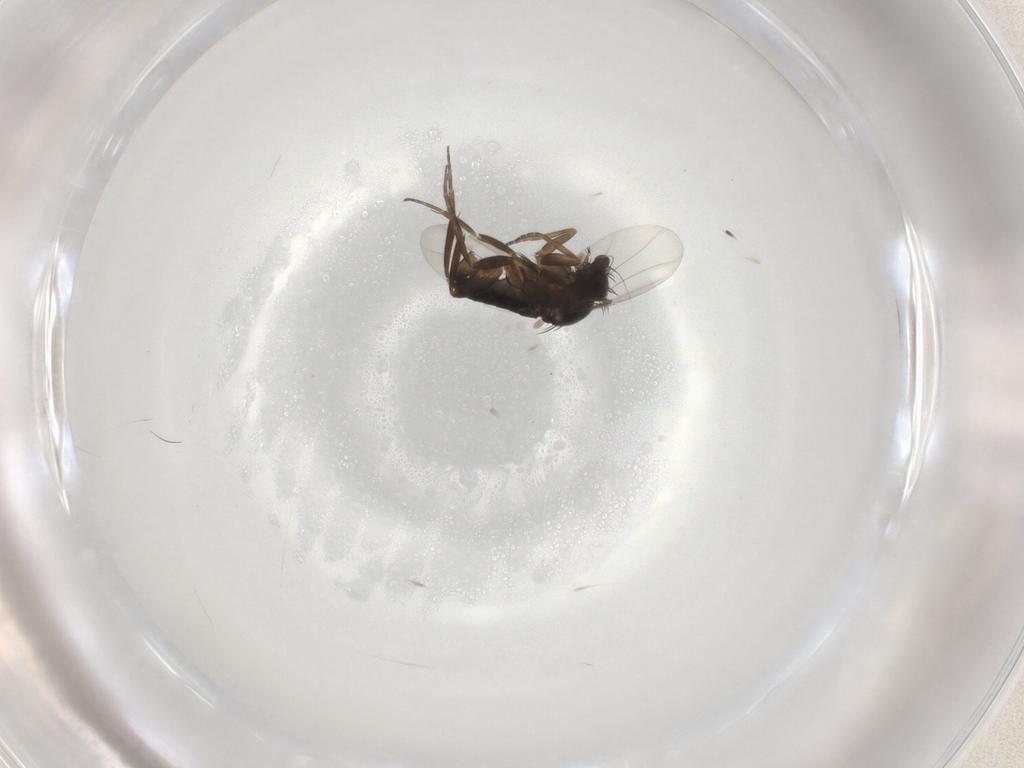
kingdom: Animalia
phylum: Arthropoda
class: Insecta
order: Diptera
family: Phoridae
